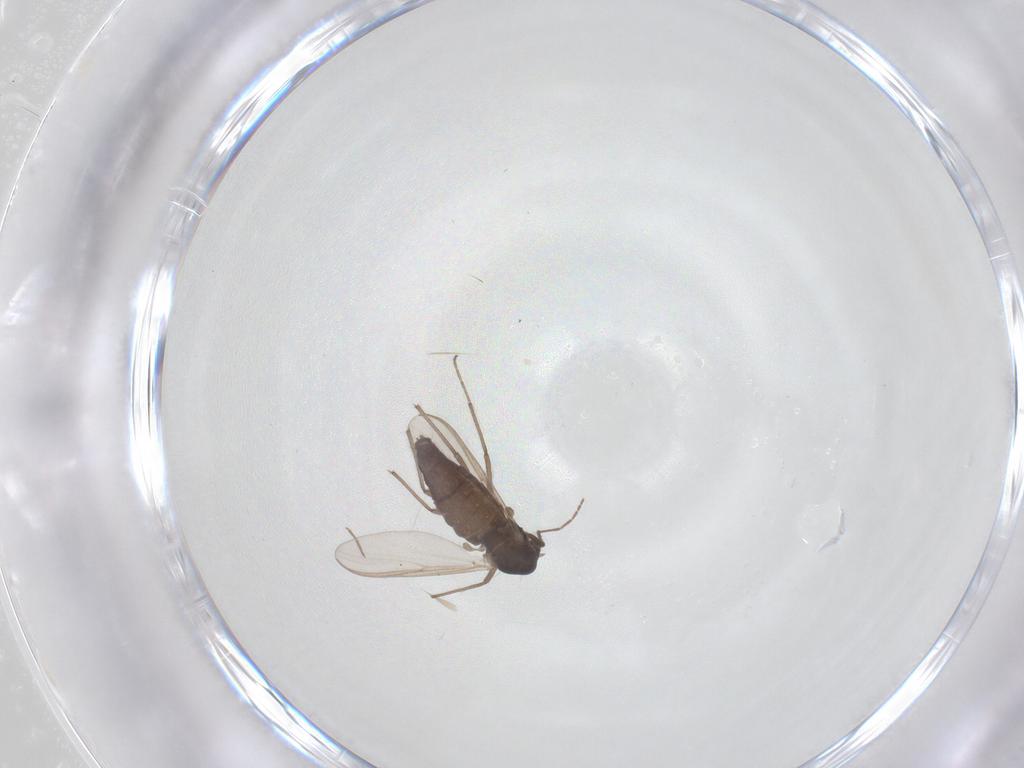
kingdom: Animalia
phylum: Arthropoda
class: Insecta
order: Diptera
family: Chironomidae
